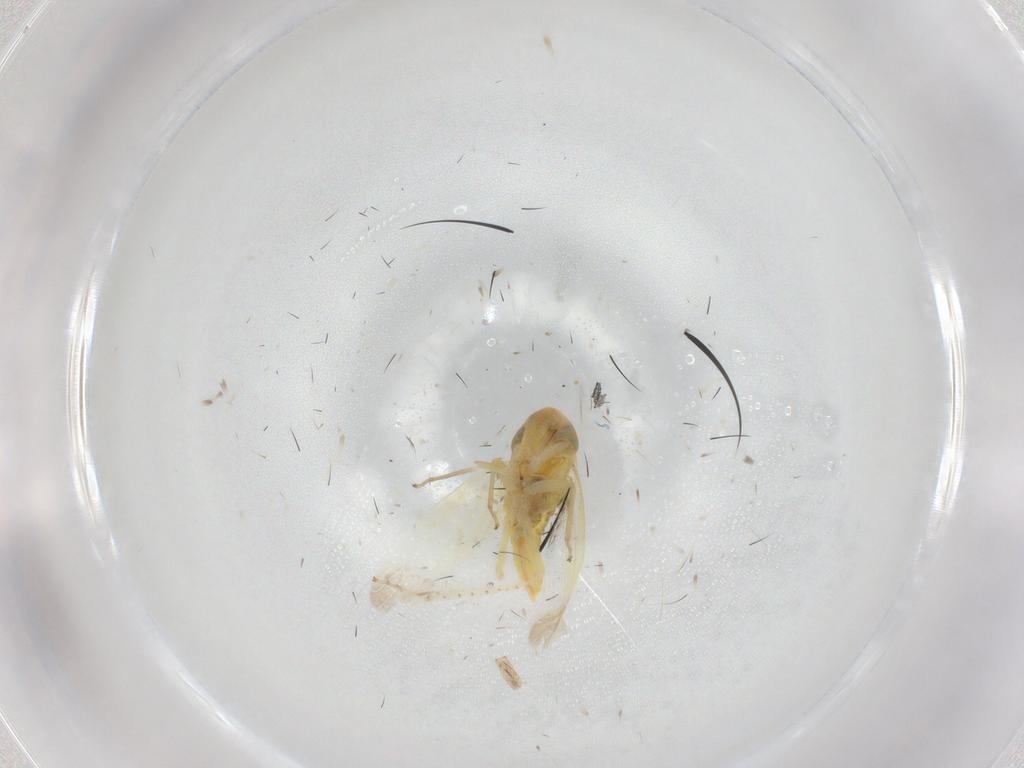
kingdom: Animalia
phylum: Arthropoda
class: Insecta
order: Hemiptera
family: Cicadellidae
